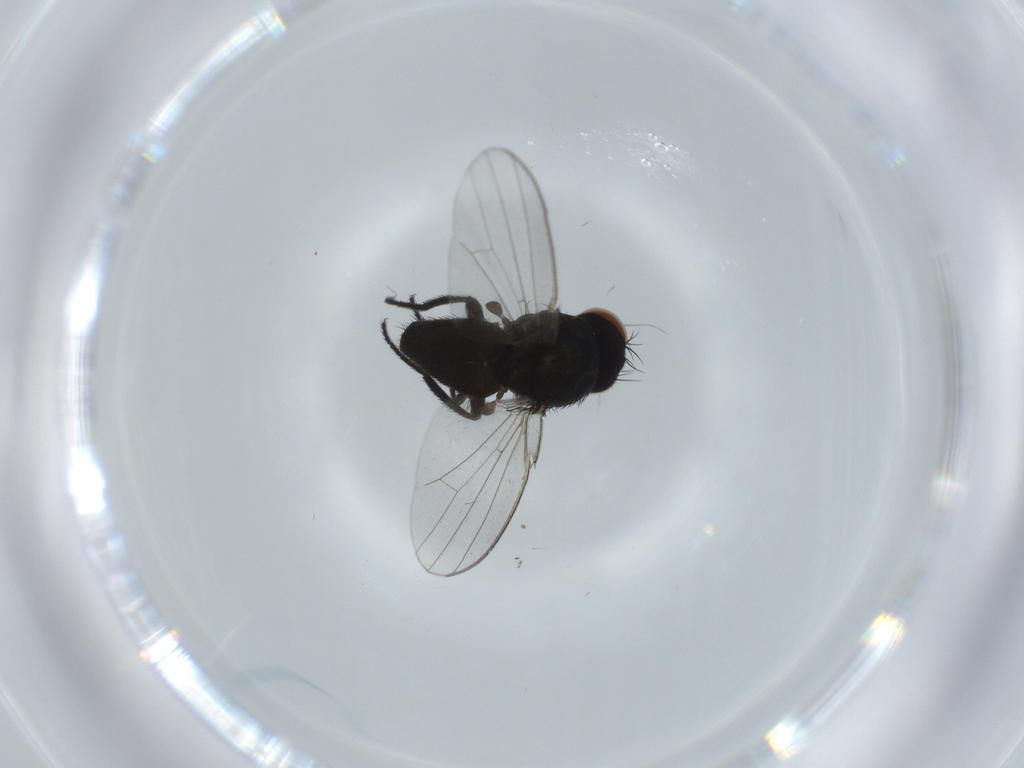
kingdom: Animalia
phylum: Arthropoda
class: Insecta
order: Diptera
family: Milichiidae
